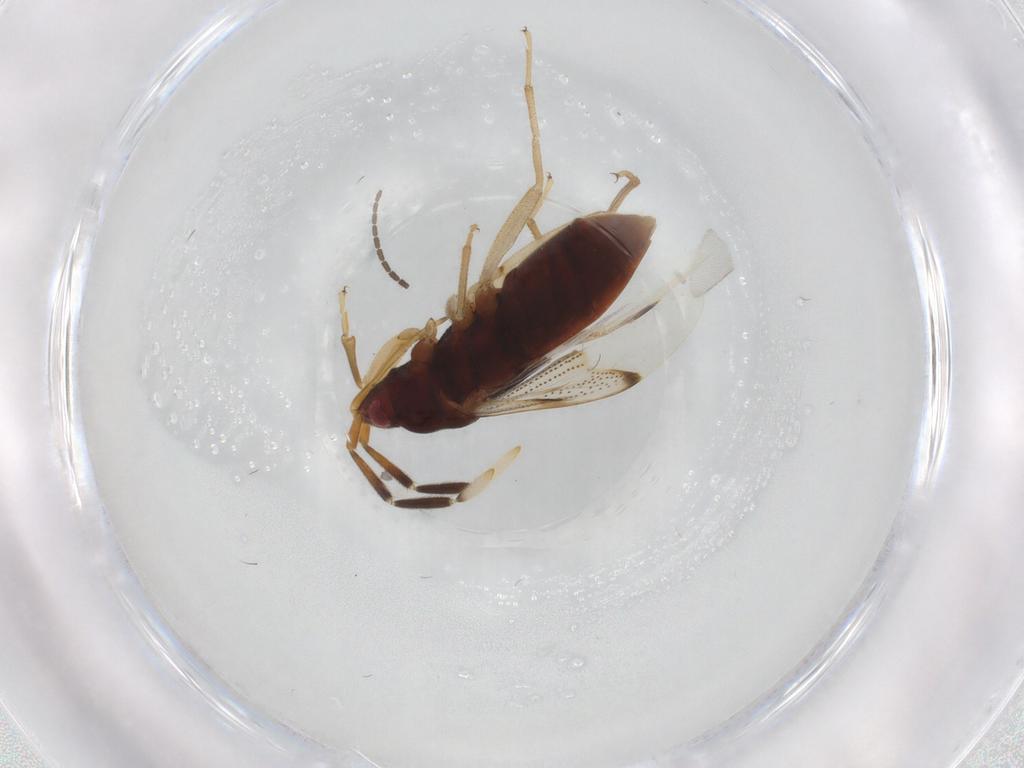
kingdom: Animalia
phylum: Arthropoda
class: Insecta
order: Hemiptera
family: Rhyparochromidae
